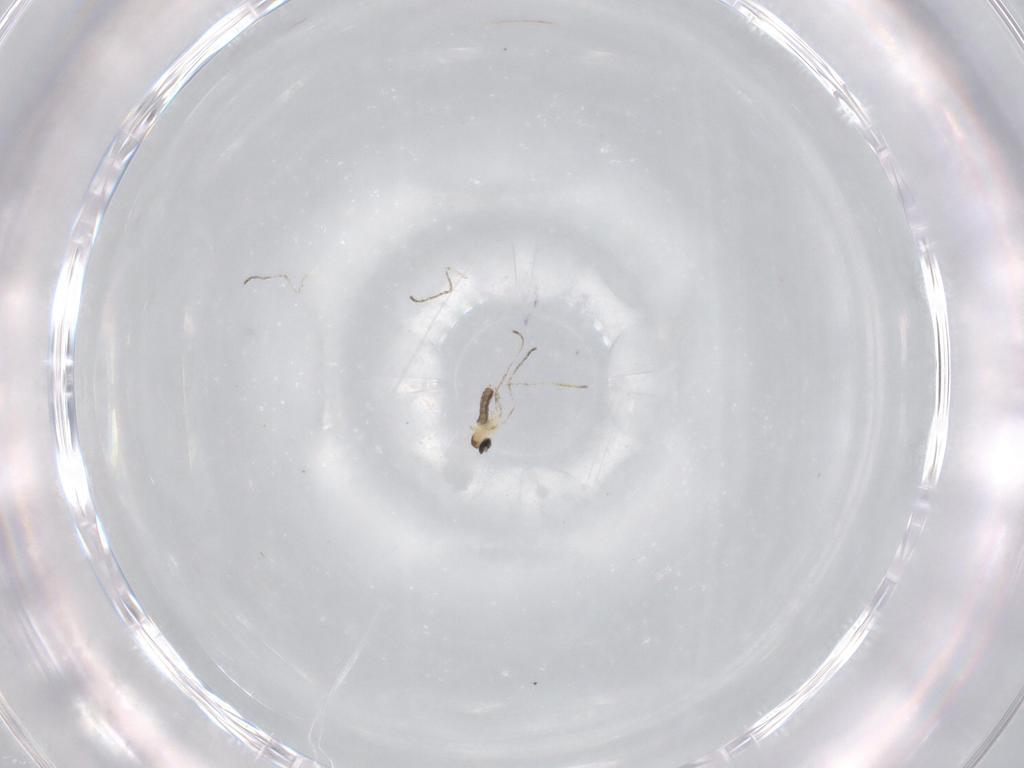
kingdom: Animalia
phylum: Arthropoda
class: Insecta
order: Diptera
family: Cecidomyiidae
